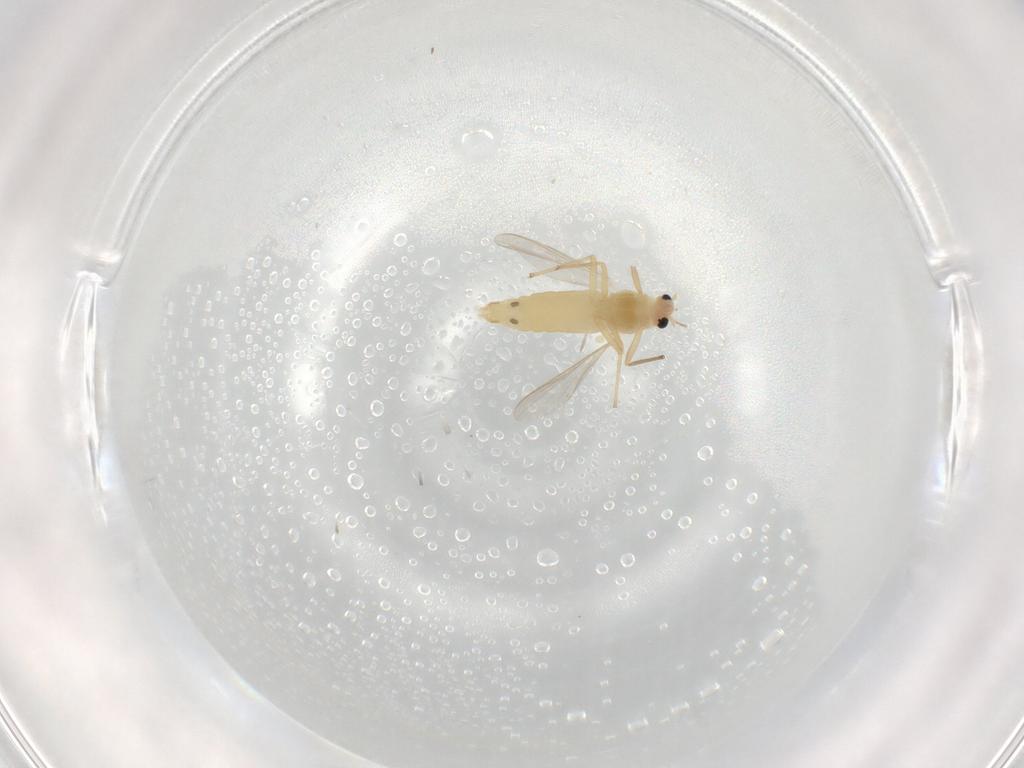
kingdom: Animalia
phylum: Arthropoda
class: Insecta
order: Diptera
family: Chironomidae
